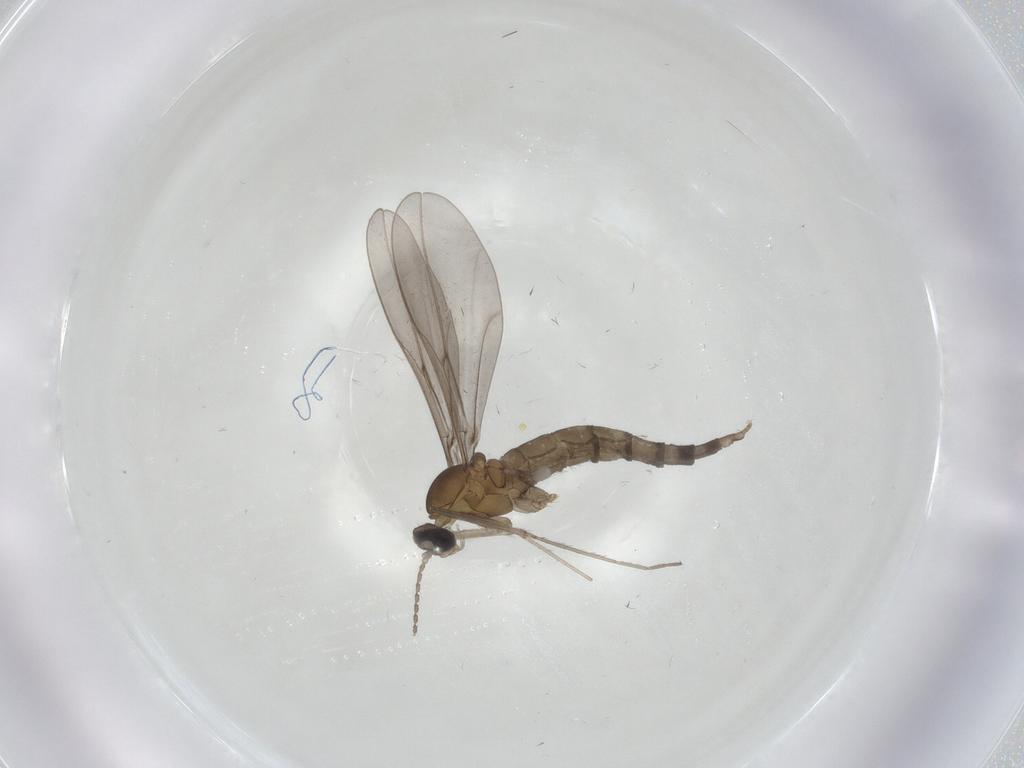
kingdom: Animalia
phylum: Arthropoda
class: Insecta
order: Diptera
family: Cecidomyiidae
